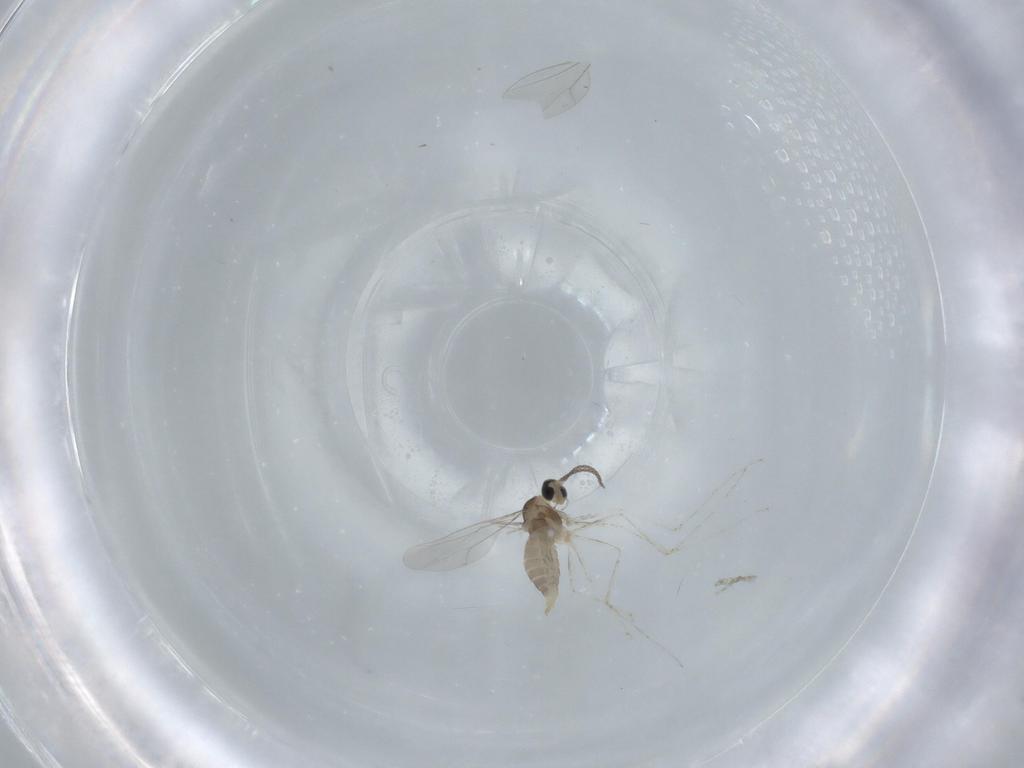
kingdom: Animalia
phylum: Arthropoda
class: Insecta
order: Diptera
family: Cecidomyiidae
